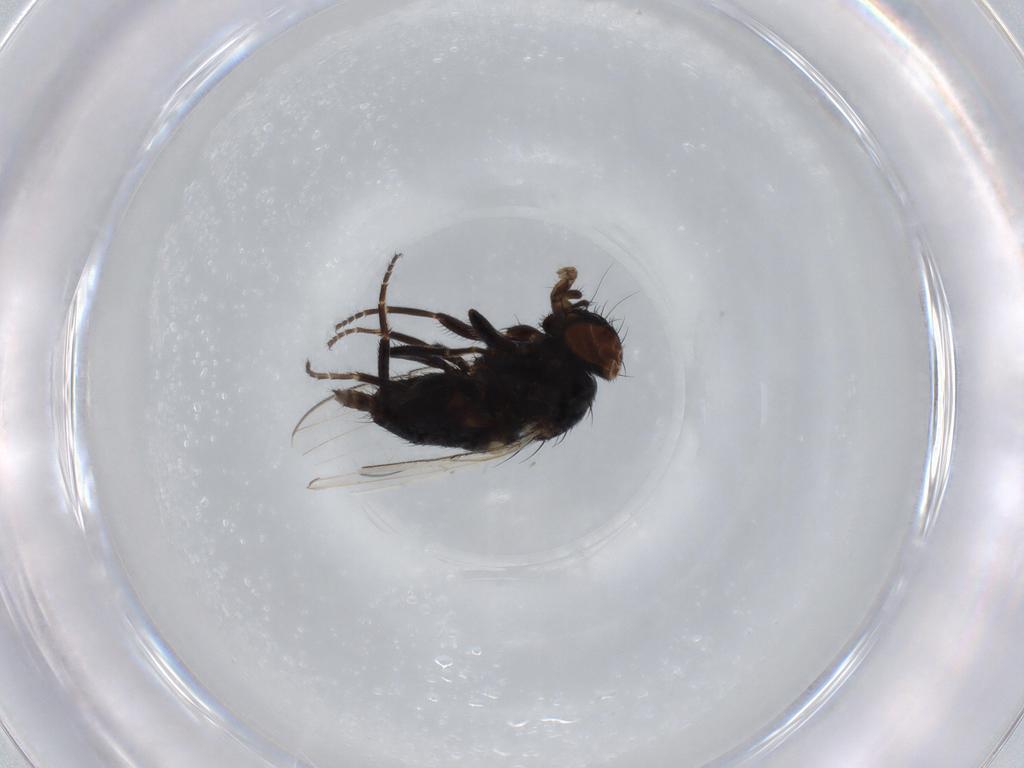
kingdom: Animalia
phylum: Arthropoda
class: Insecta
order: Diptera
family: Milichiidae
